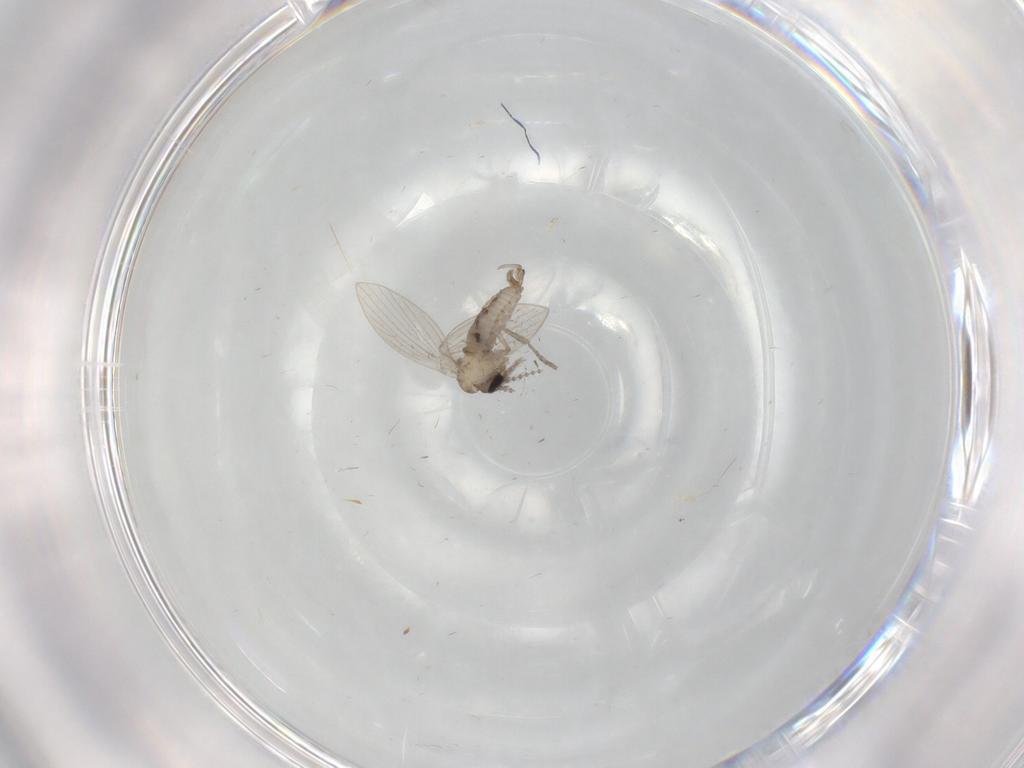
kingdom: Animalia
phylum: Arthropoda
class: Insecta
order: Diptera
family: Psychodidae
